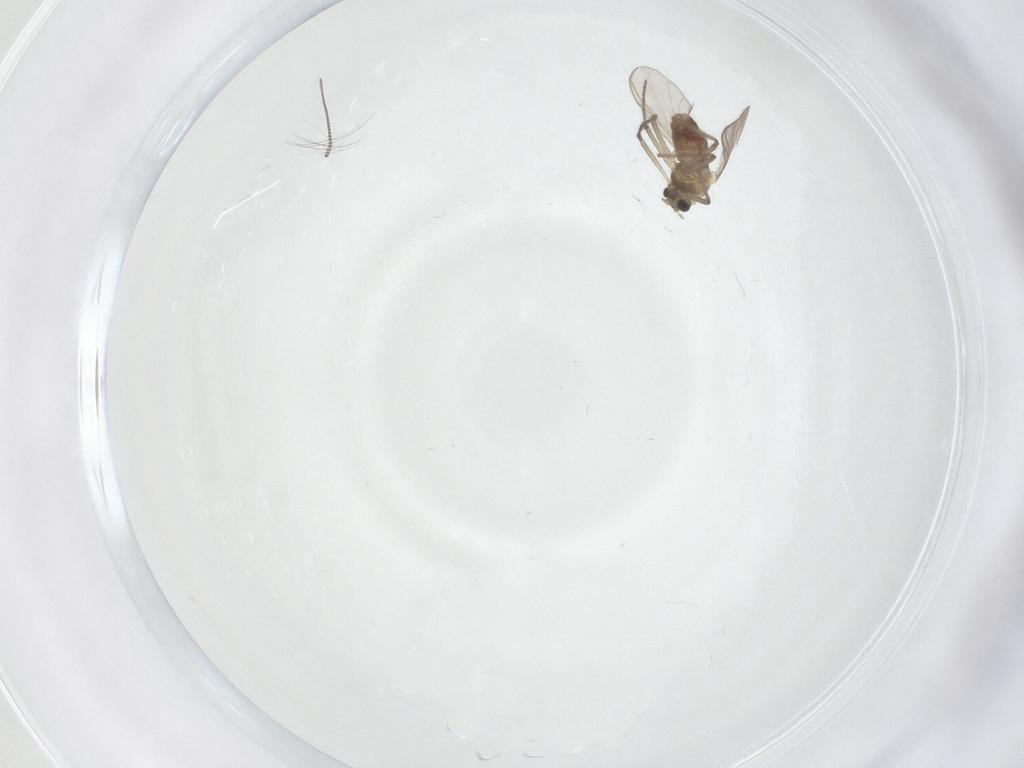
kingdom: Animalia
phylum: Arthropoda
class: Insecta
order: Diptera
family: Chironomidae
